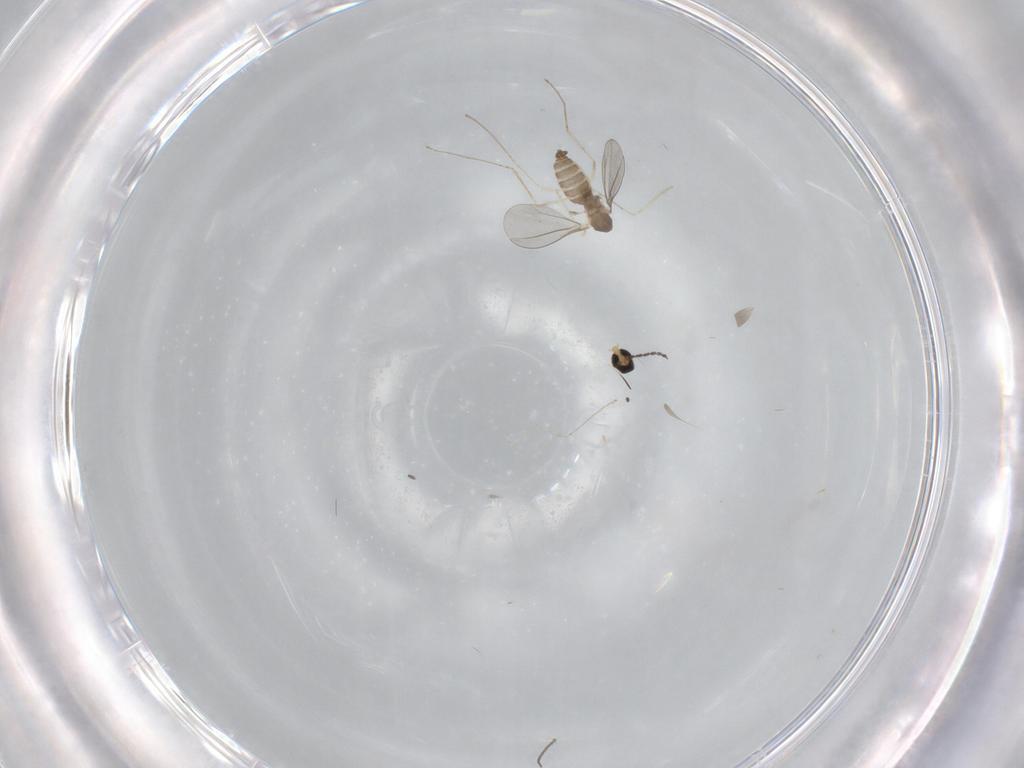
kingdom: Animalia
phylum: Arthropoda
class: Insecta
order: Diptera
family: Cecidomyiidae
